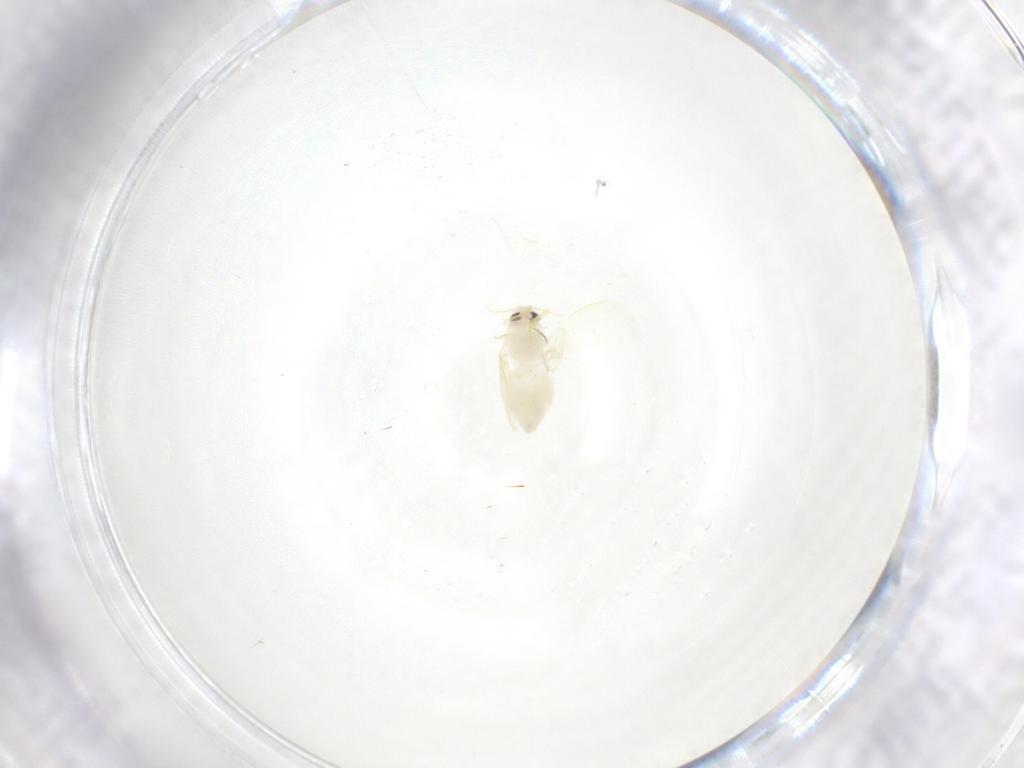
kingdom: Animalia
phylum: Arthropoda
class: Insecta
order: Hemiptera
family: Aleyrodidae
